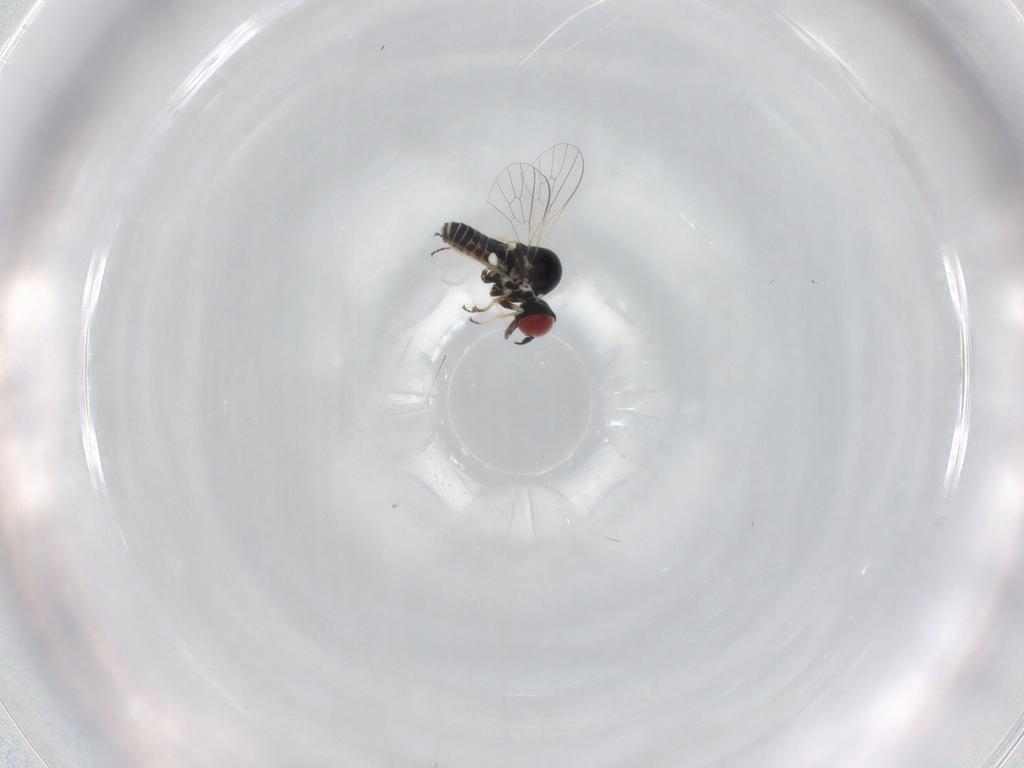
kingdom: Animalia
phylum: Arthropoda
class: Insecta
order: Diptera
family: Bombyliidae
